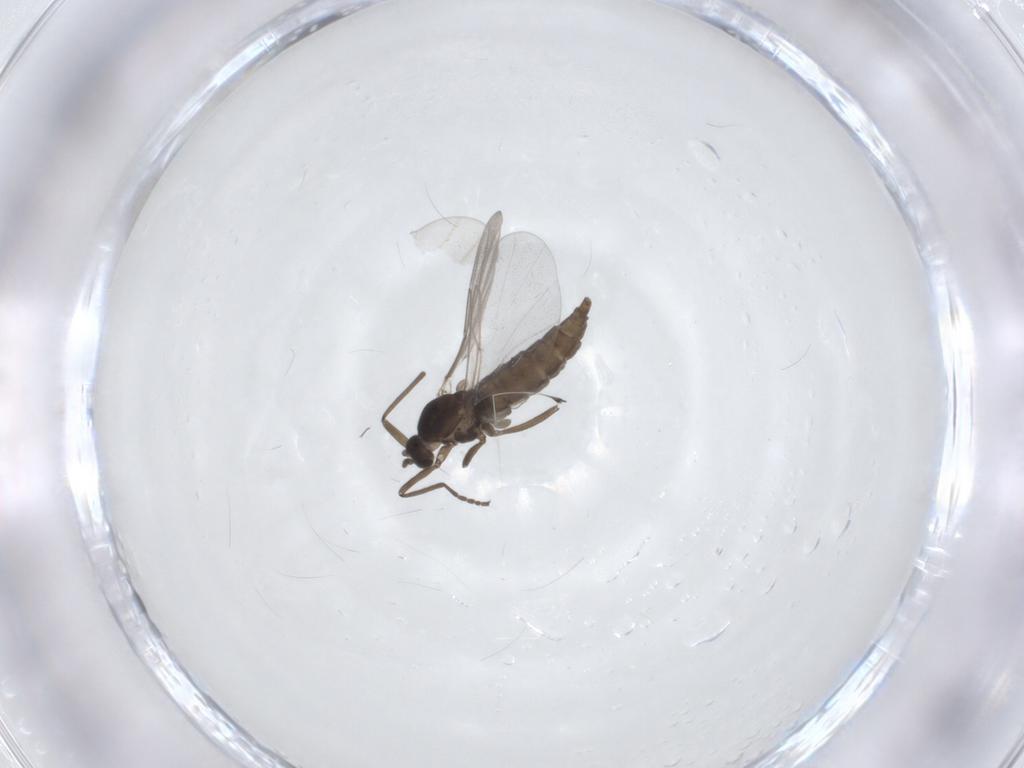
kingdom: Animalia
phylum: Arthropoda
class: Insecta
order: Diptera
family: Cecidomyiidae
